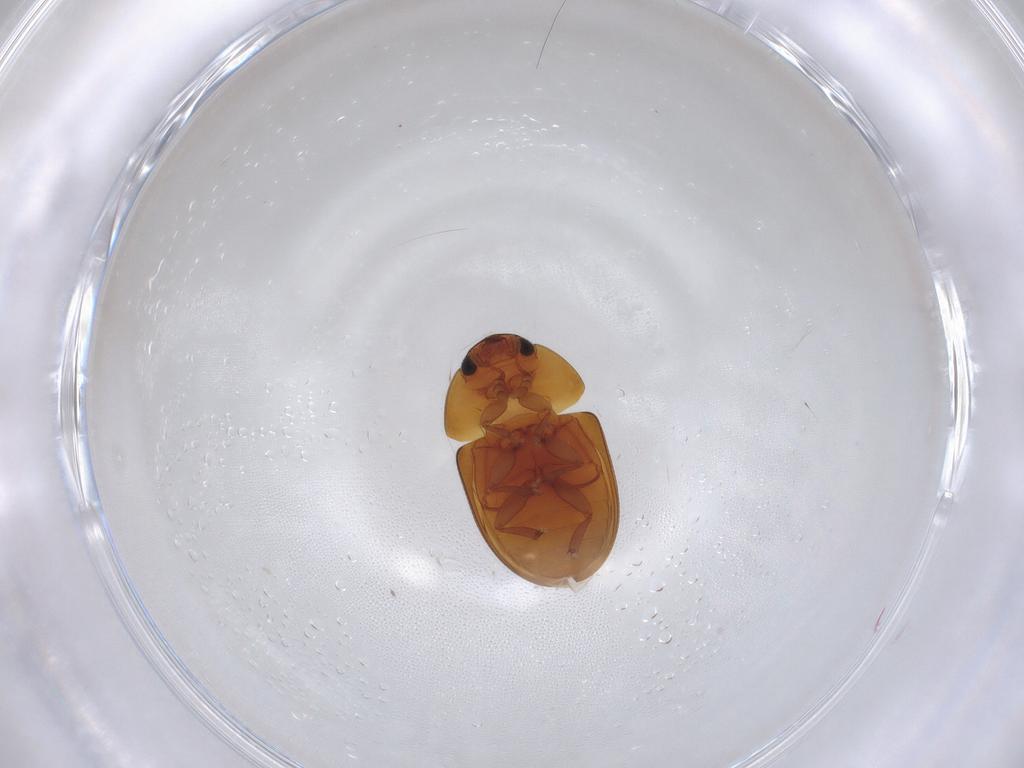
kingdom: Animalia
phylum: Arthropoda
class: Insecta
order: Coleoptera
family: Phalacridae
